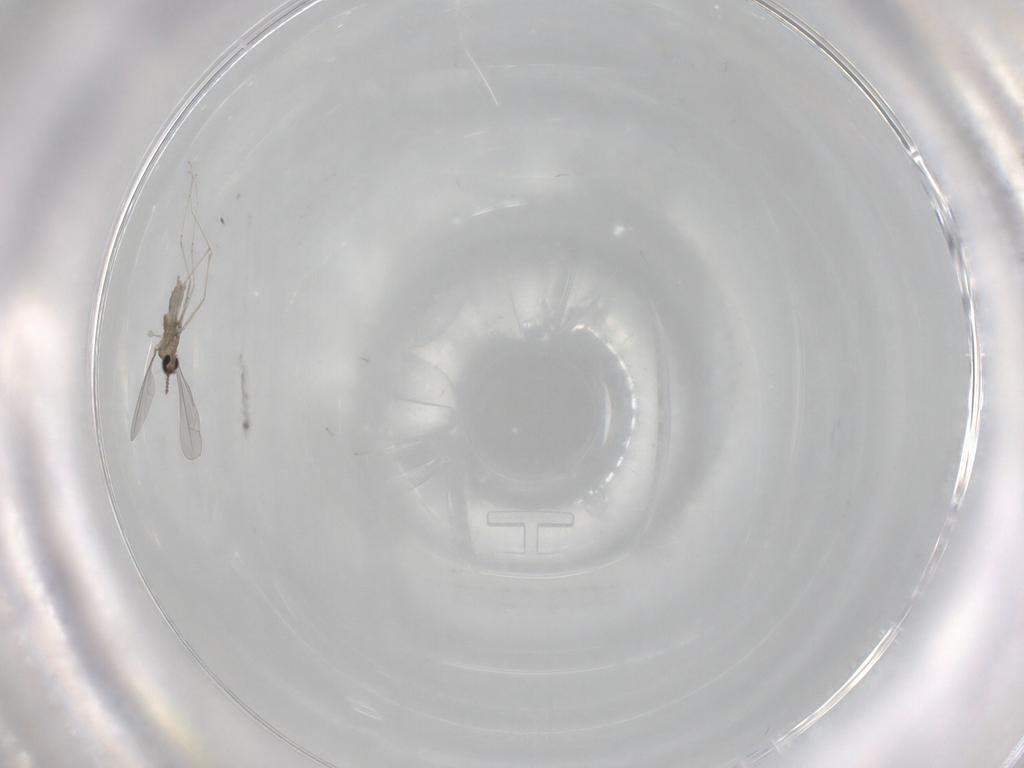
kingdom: Animalia
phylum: Arthropoda
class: Insecta
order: Diptera
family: Cecidomyiidae
